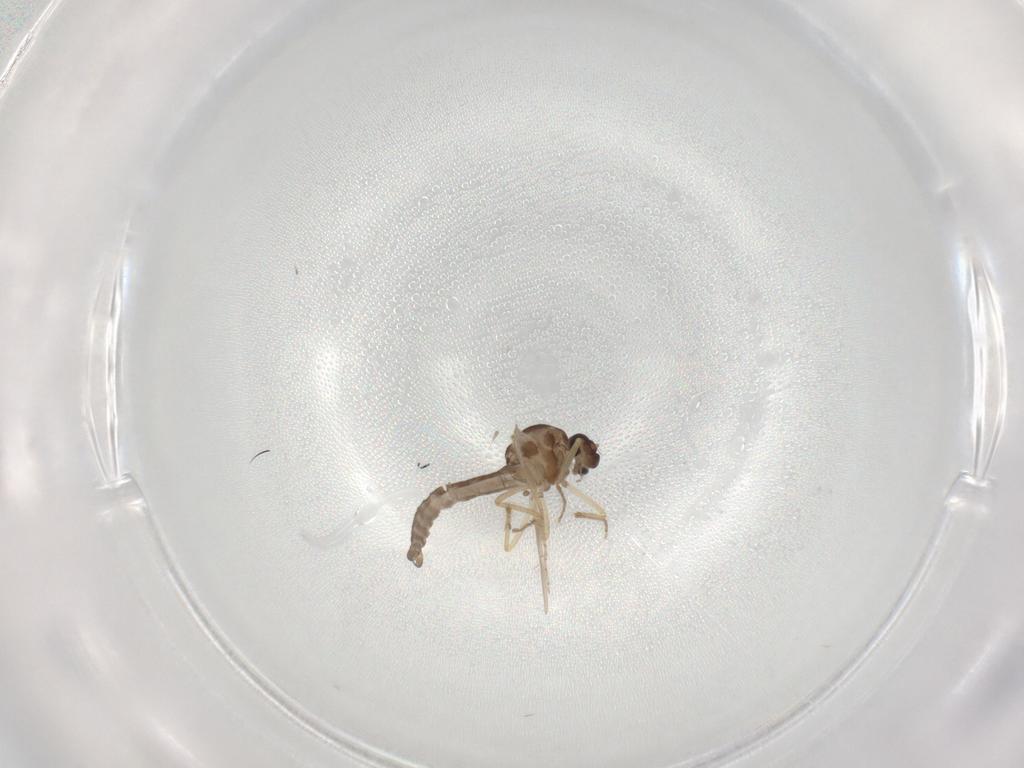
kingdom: Animalia
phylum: Arthropoda
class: Insecta
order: Diptera
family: Ceratopogonidae
